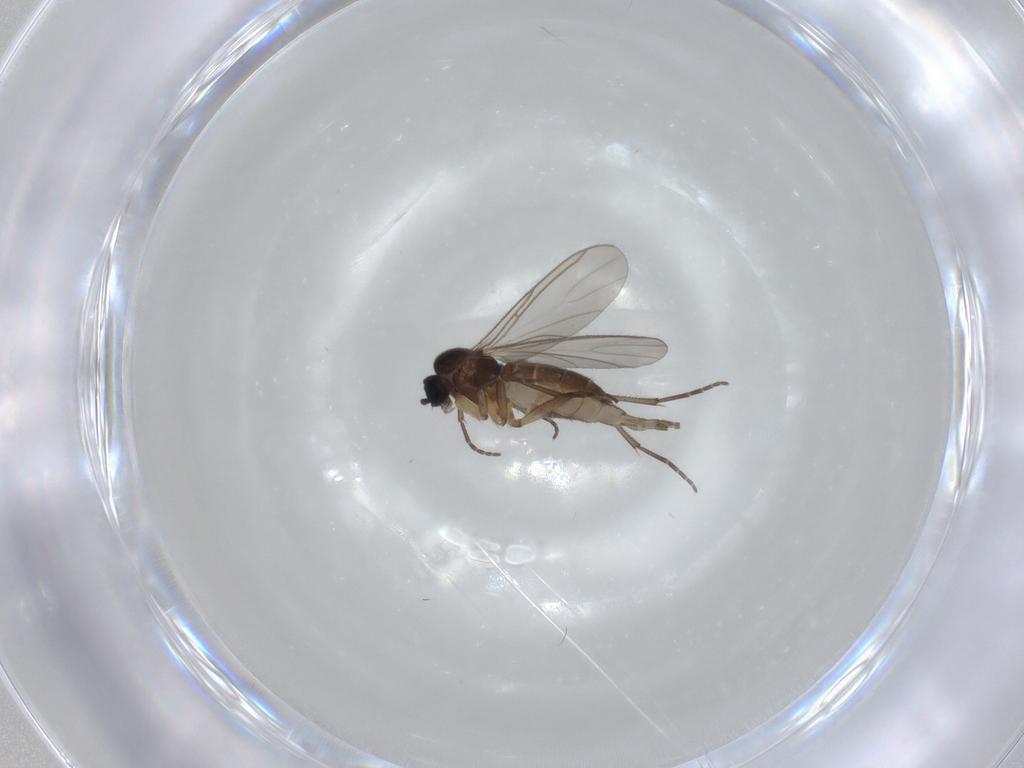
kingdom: Animalia
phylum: Arthropoda
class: Insecta
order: Diptera
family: Sciaridae
